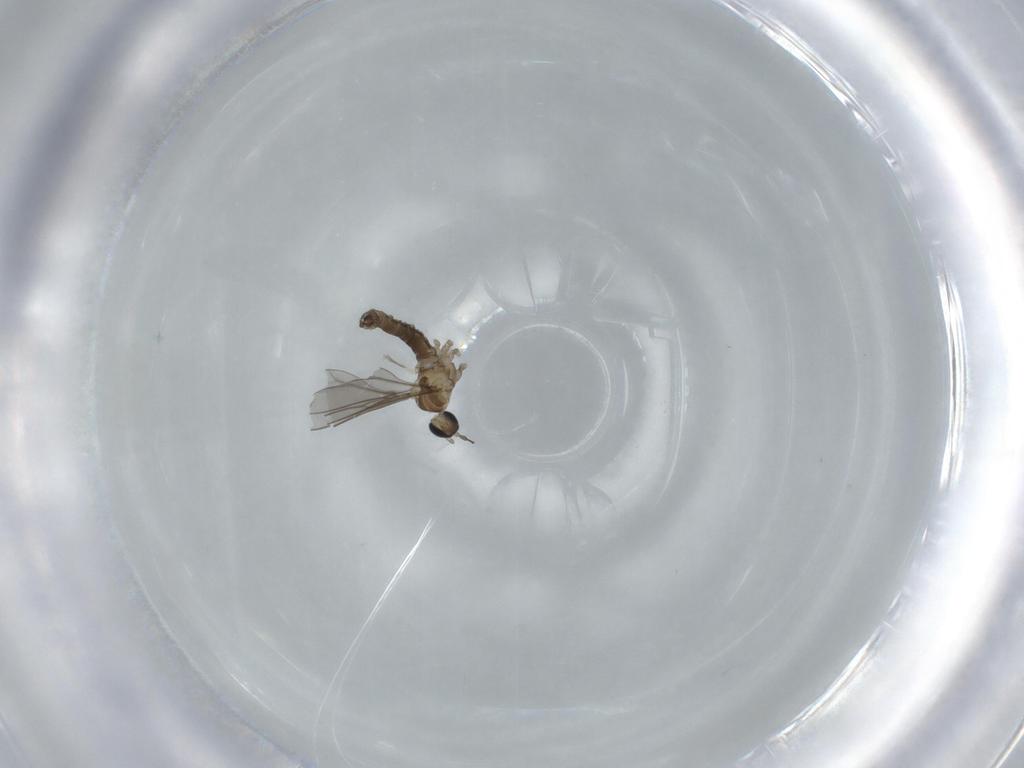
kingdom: Animalia
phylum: Arthropoda
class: Insecta
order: Diptera
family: Cecidomyiidae
